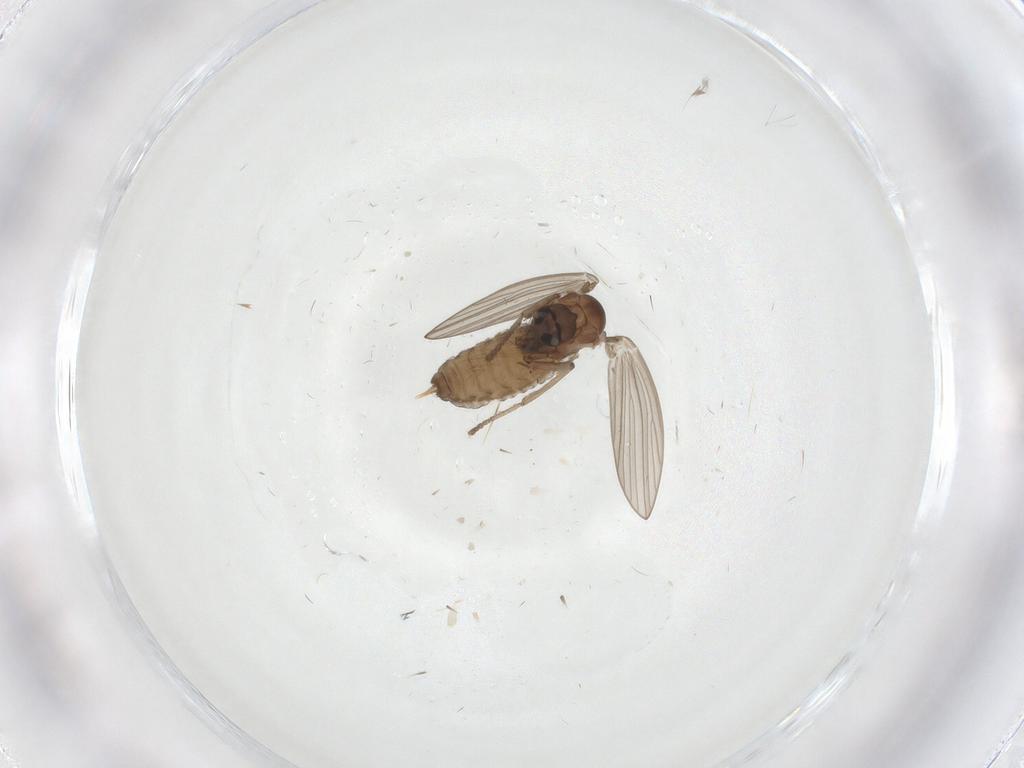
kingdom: Animalia
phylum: Arthropoda
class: Insecta
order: Diptera
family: Psychodidae
